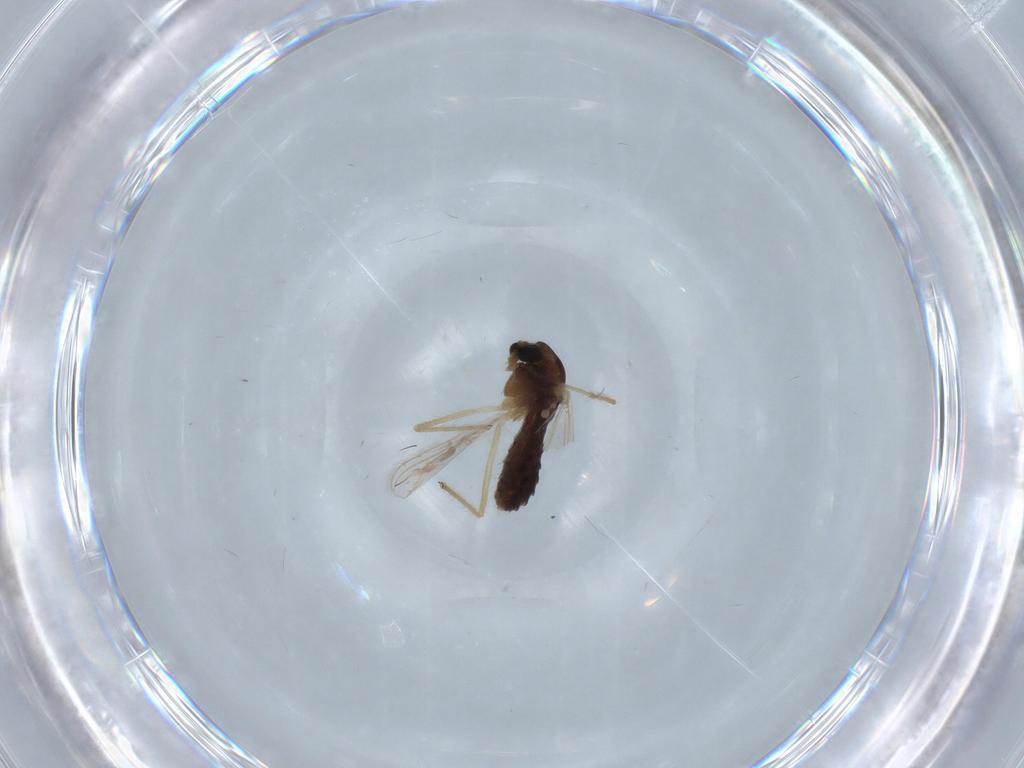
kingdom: Animalia
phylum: Arthropoda
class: Insecta
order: Diptera
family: Chironomidae
